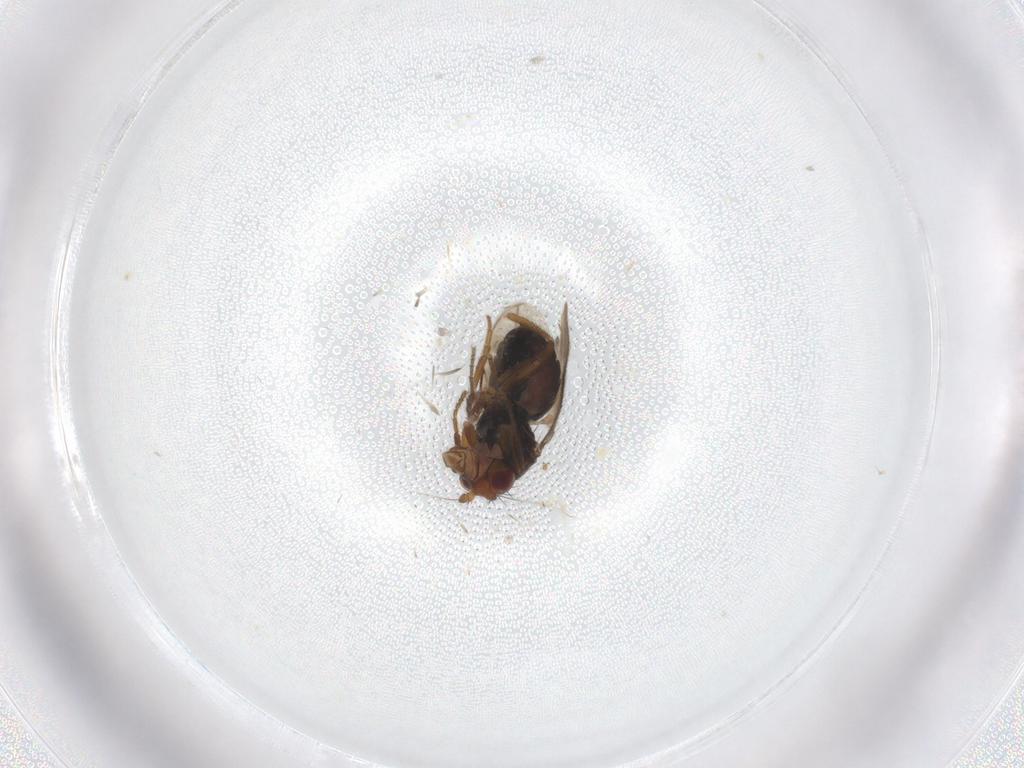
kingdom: Animalia
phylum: Arthropoda
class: Insecta
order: Diptera
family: Sphaeroceridae
